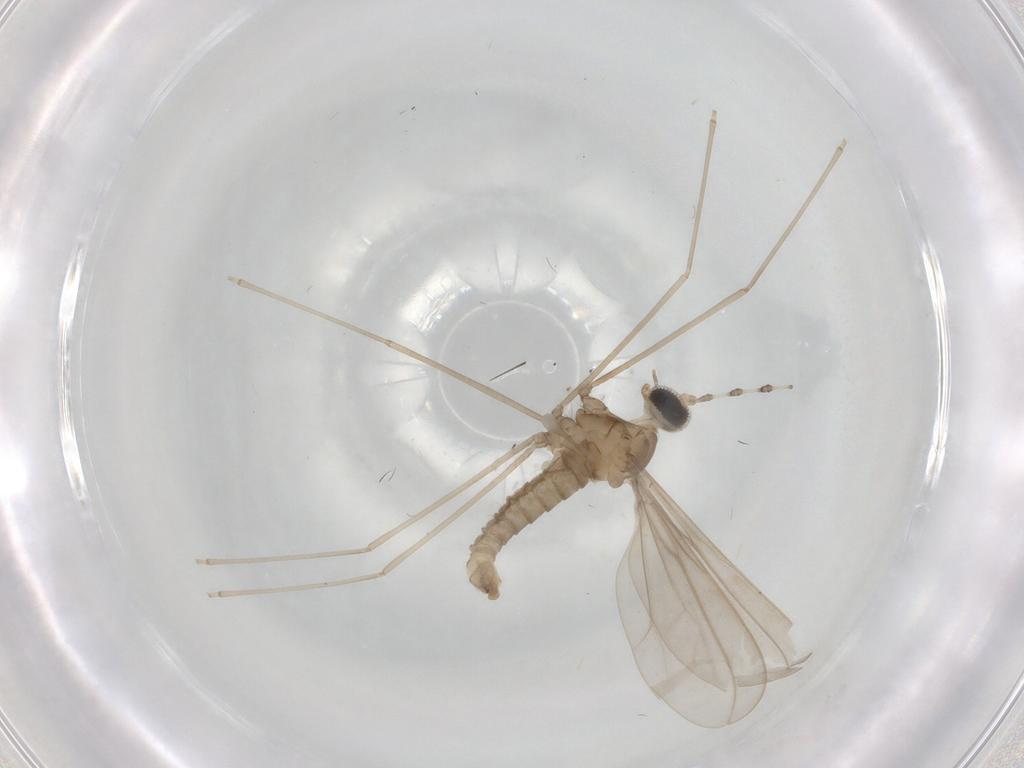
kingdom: Animalia
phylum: Arthropoda
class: Insecta
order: Diptera
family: Cecidomyiidae
